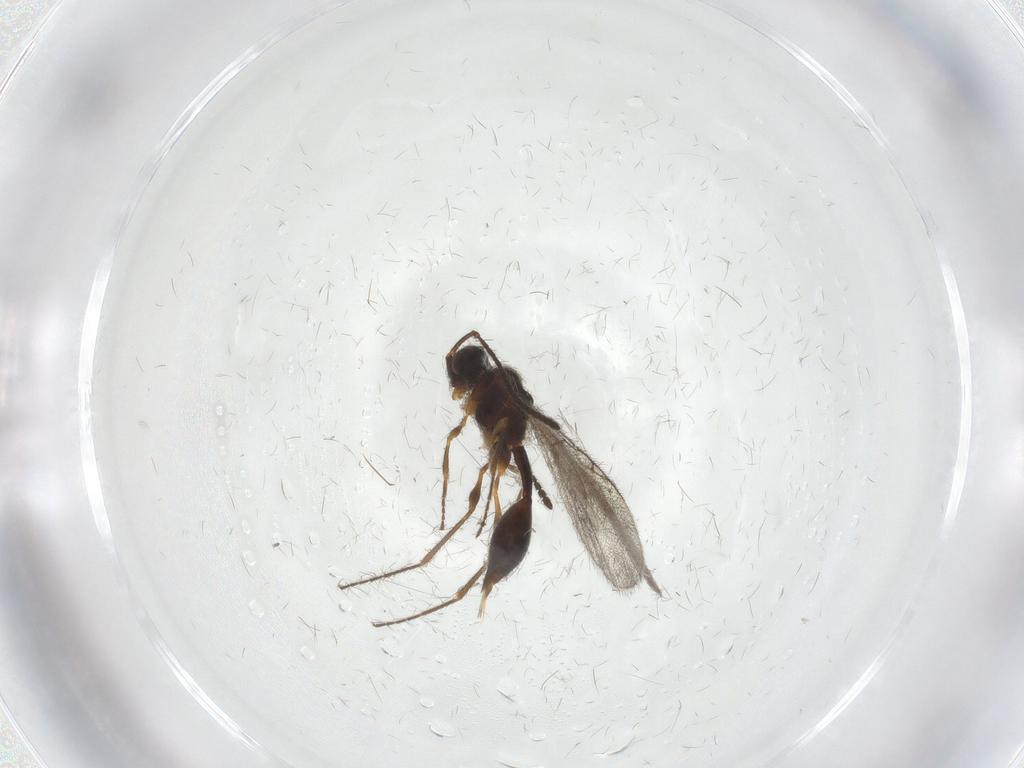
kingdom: Animalia
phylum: Arthropoda
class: Insecta
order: Hymenoptera
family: Diapriidae
